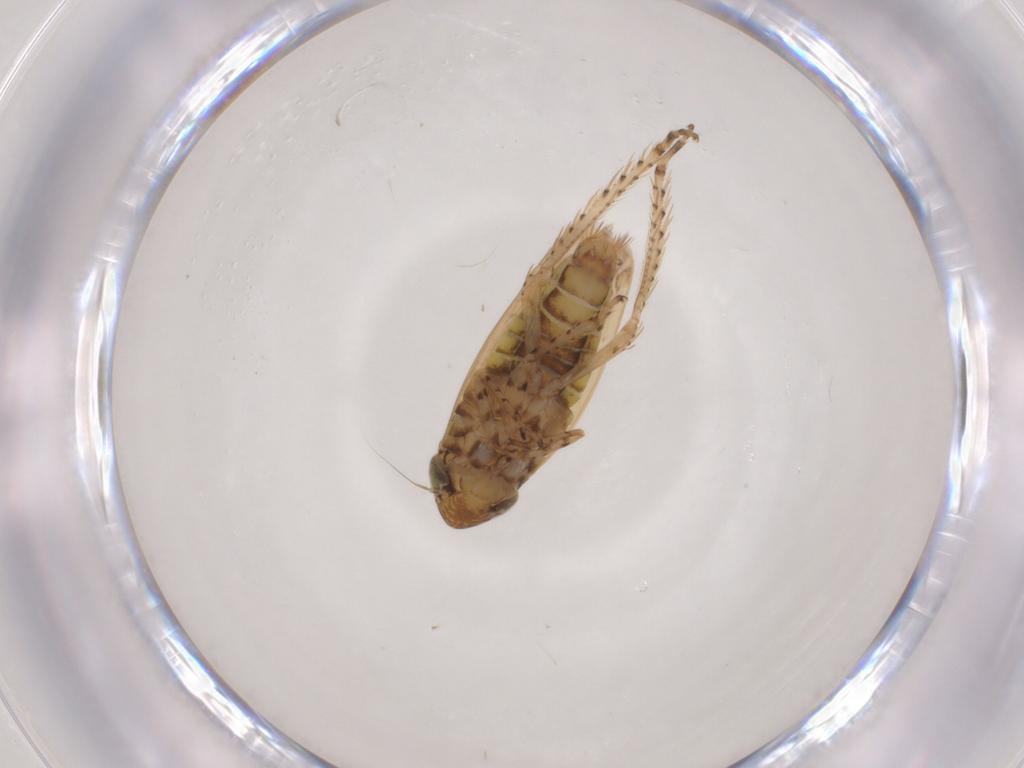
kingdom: Animalia
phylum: Arthropoda
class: Insecta
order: Hemiptera
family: Cicadellidae
